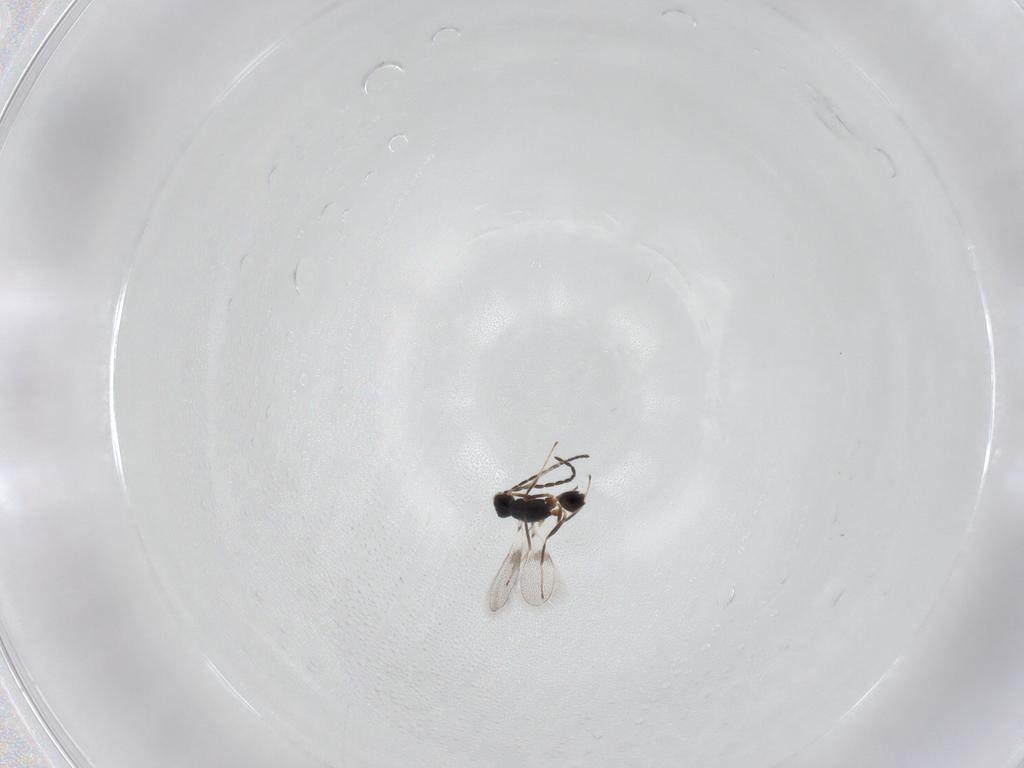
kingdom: Animalia
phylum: Arthropoda
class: Insecta
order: Hymenoptera
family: Mymaridae
